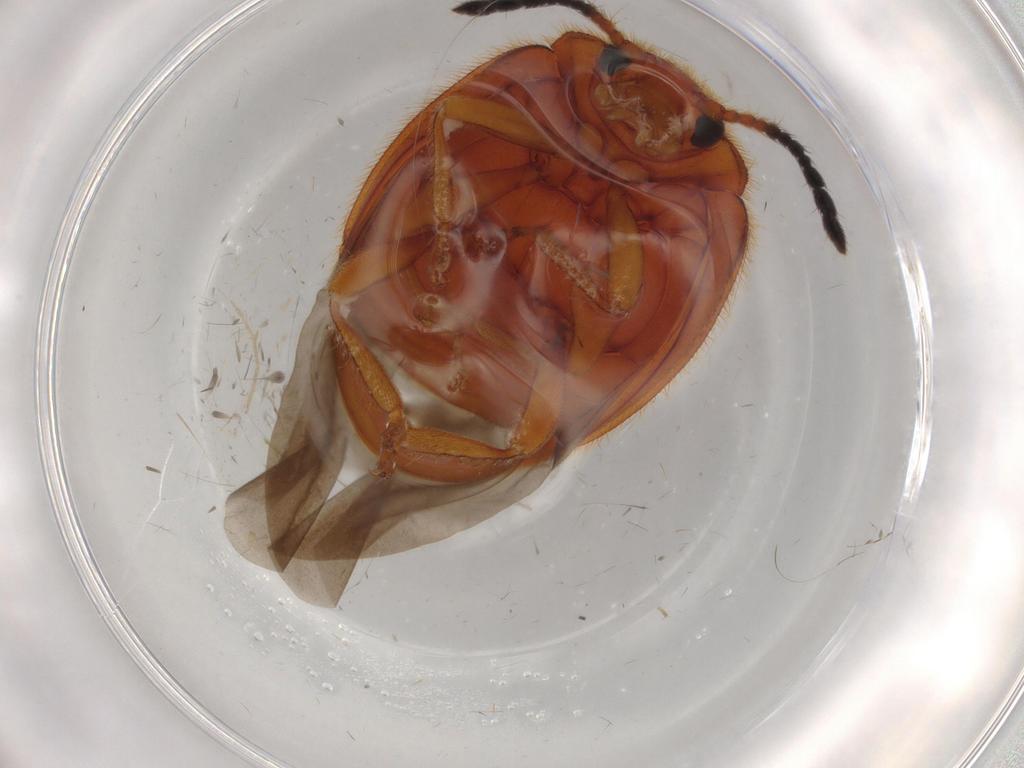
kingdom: Animalia
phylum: Arthropoda
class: Insecta
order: Coleoptera
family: Endomychidae
